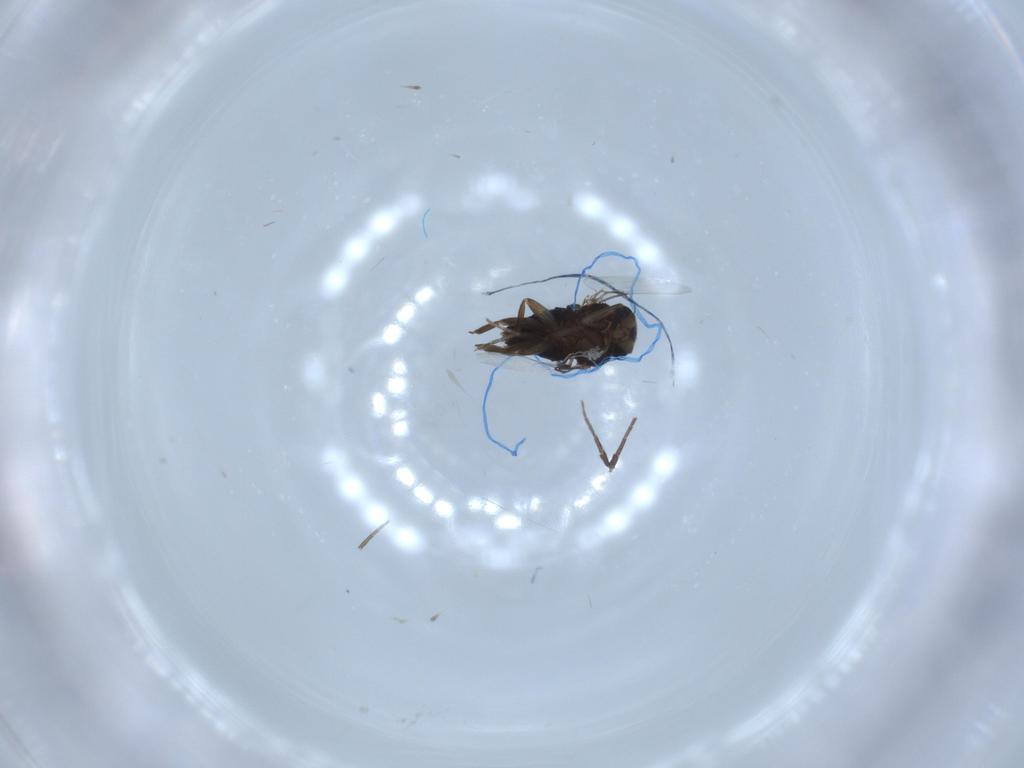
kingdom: Animalia
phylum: Arthropoda
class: Insecta
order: Diptera
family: Phoridae
